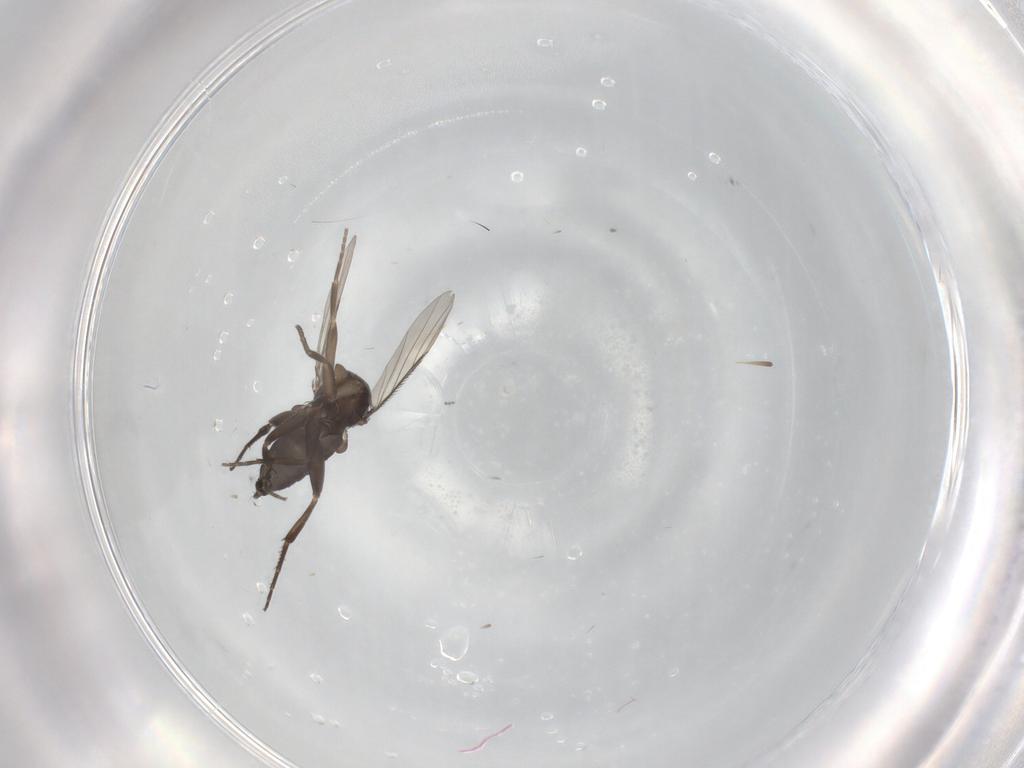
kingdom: Animalia
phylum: Arthropoda
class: Insecta
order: Diptera
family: Phoridae
